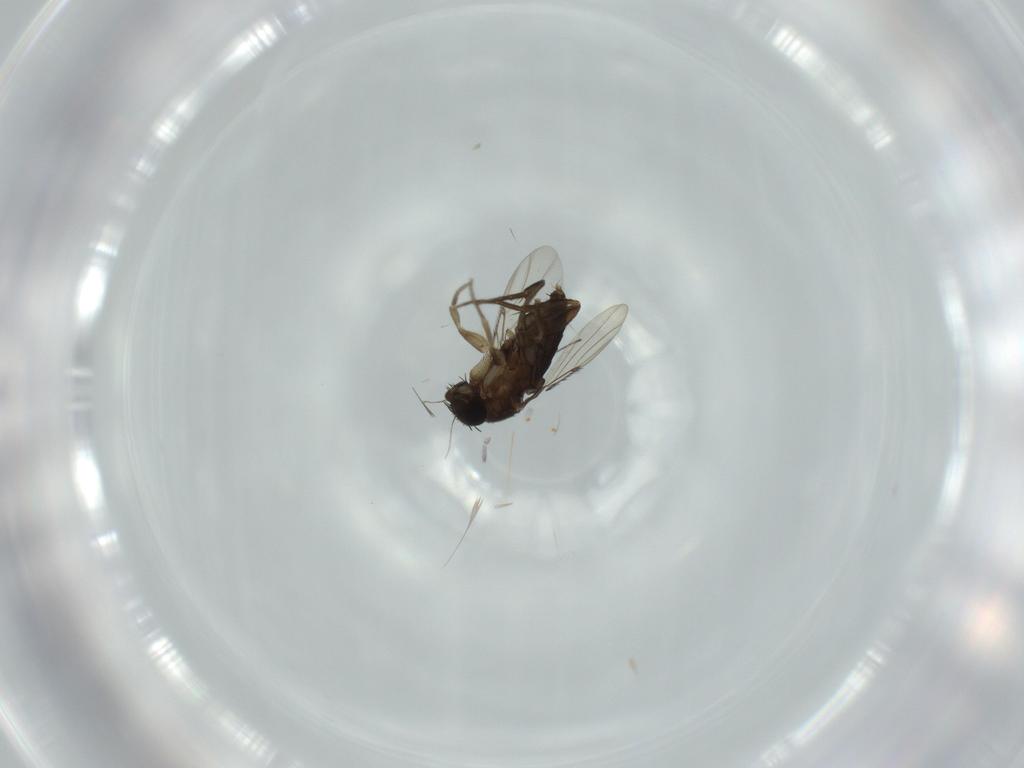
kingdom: Animalia
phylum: Arthropoda
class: Insecta
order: Diptera
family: Phoridae
